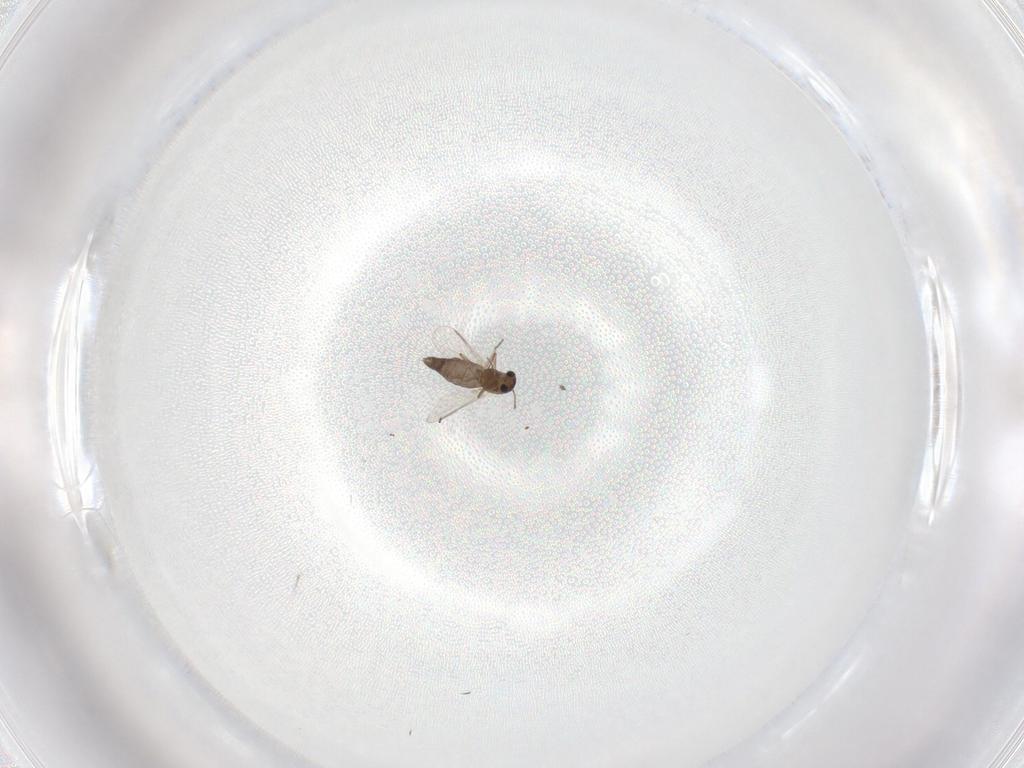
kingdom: Animalia
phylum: Arthropoda
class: Insecta
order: Diptera
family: Chironomidae
